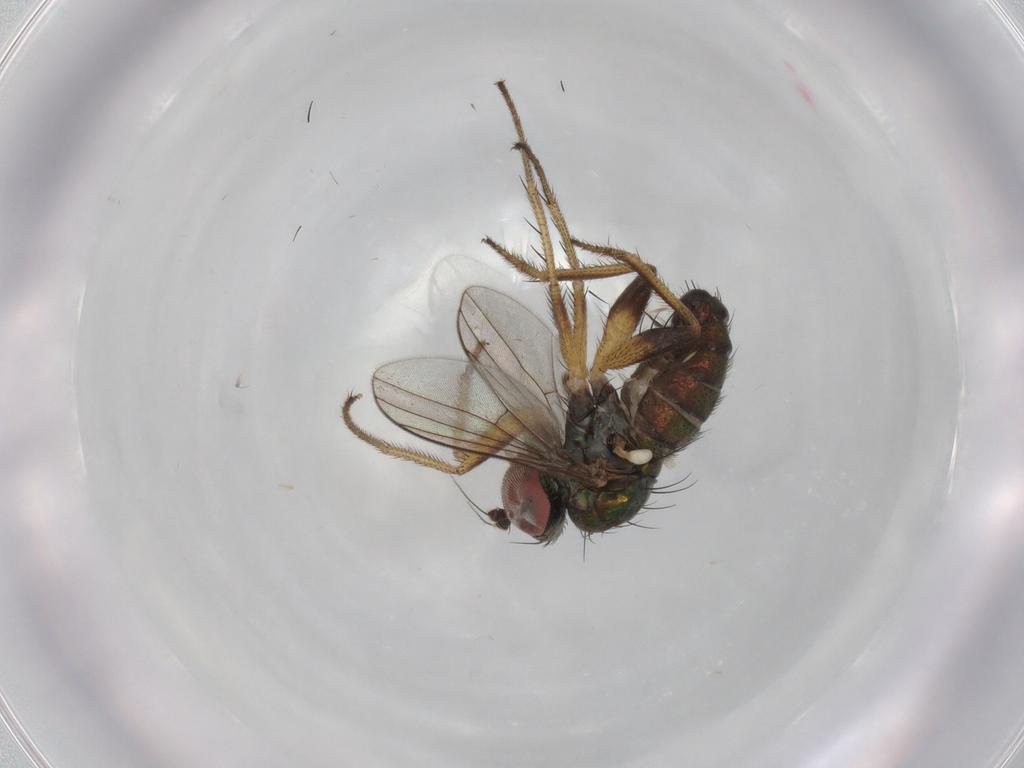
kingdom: Animalia
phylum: Arthropoda
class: Insecta
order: Diptera
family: Dolichopodidae
